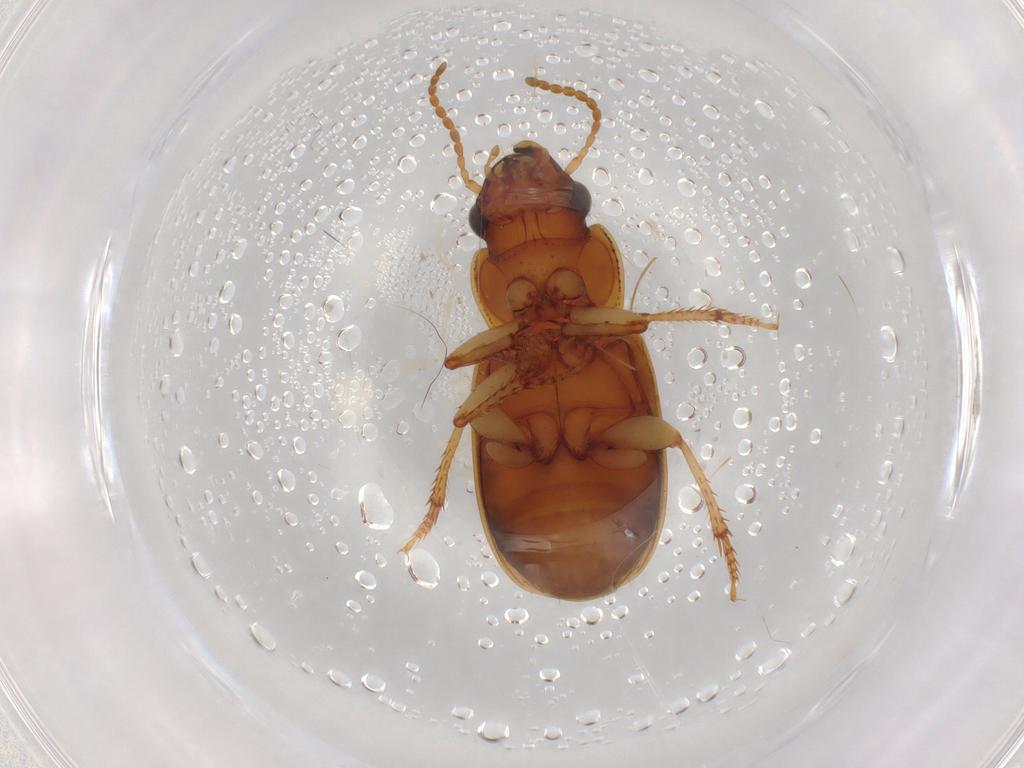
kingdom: Animalia
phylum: Arthropoda
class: Insecta
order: Coleoptera
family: Carabidae
